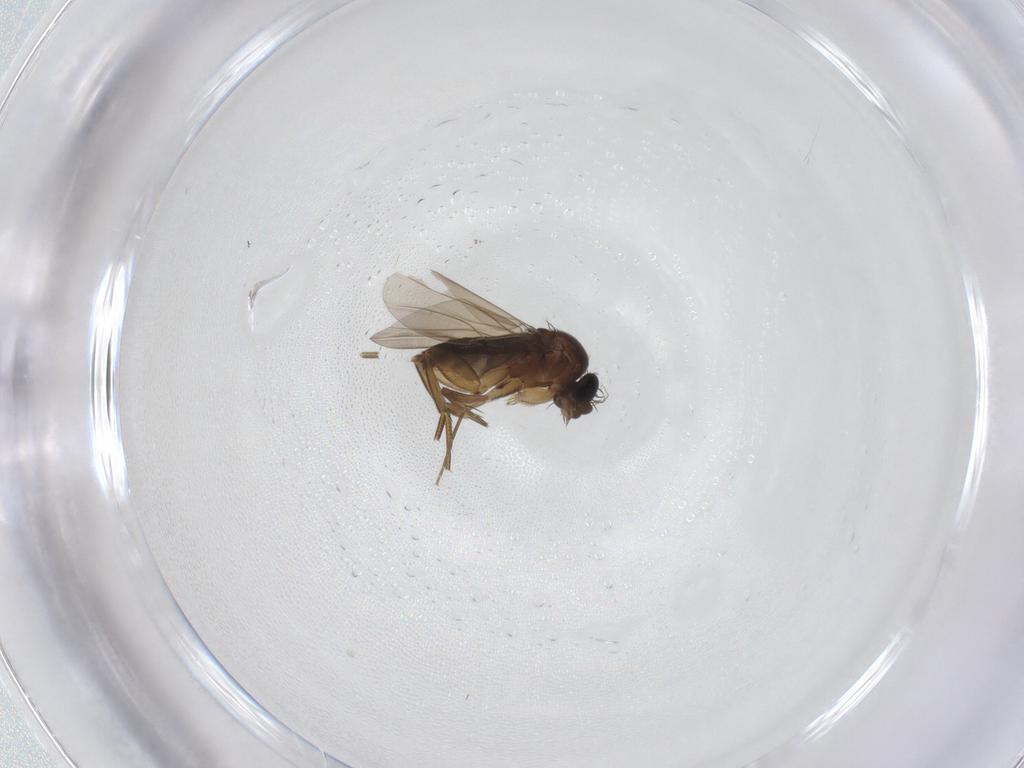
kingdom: Animalia
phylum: Arthropoda
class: Insecta
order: Diptera
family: Phoridae
